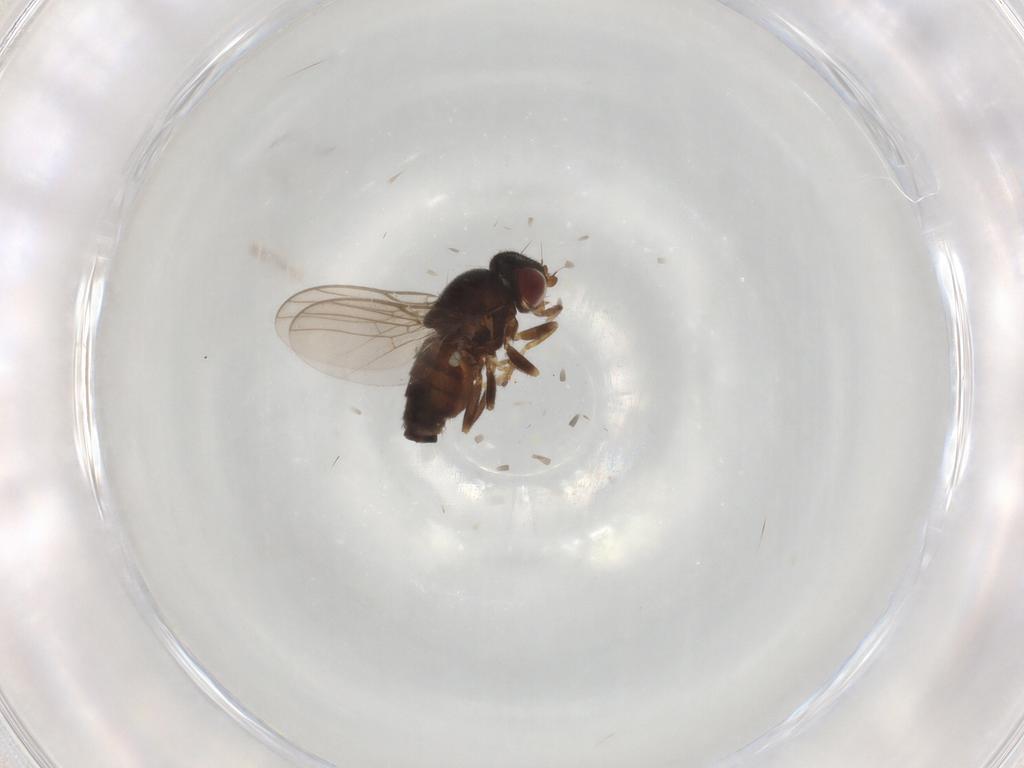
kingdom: Animalia
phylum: Arthropoda
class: Insecta
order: Diptera
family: Chloropidae
